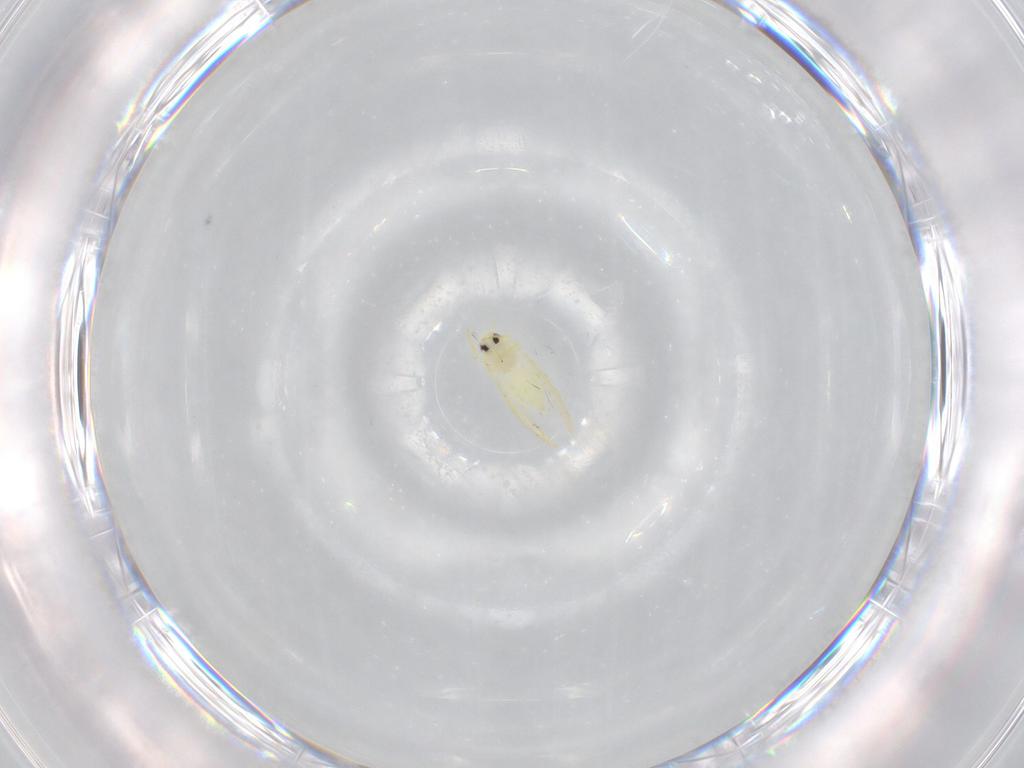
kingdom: Animalia
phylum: Arthropoda
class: Insecta
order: Hemiptera
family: Aleyrodidae
